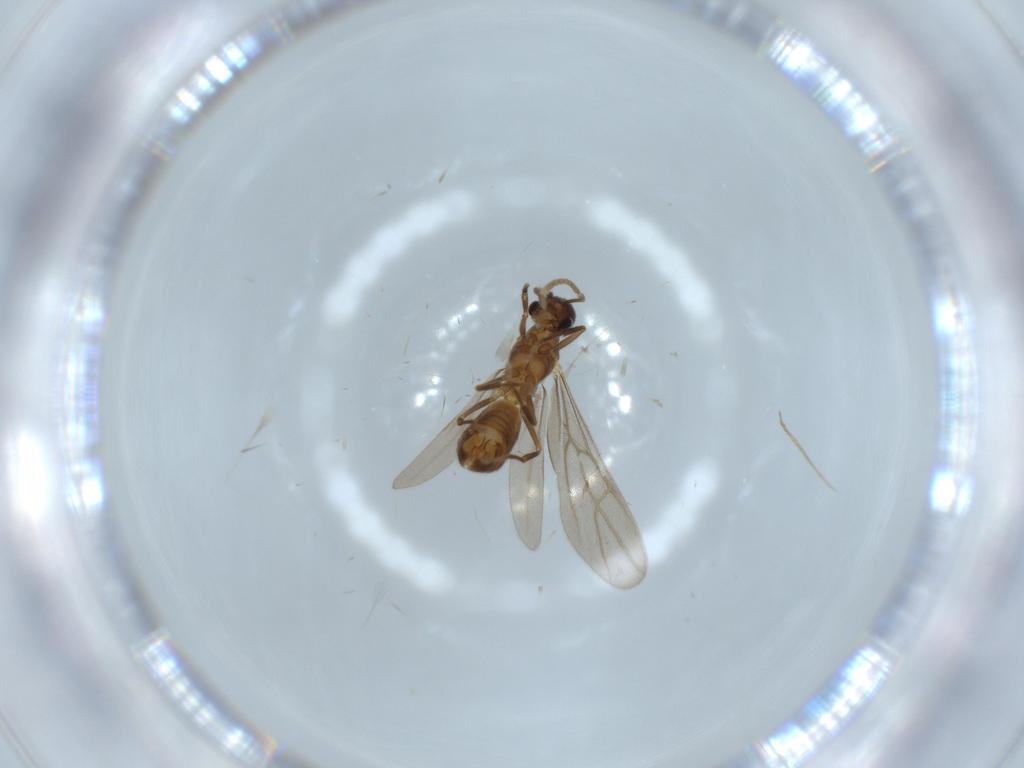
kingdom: Animalia
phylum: Arthropoda
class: Insecta
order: Hymenoptera
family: Formicidae
